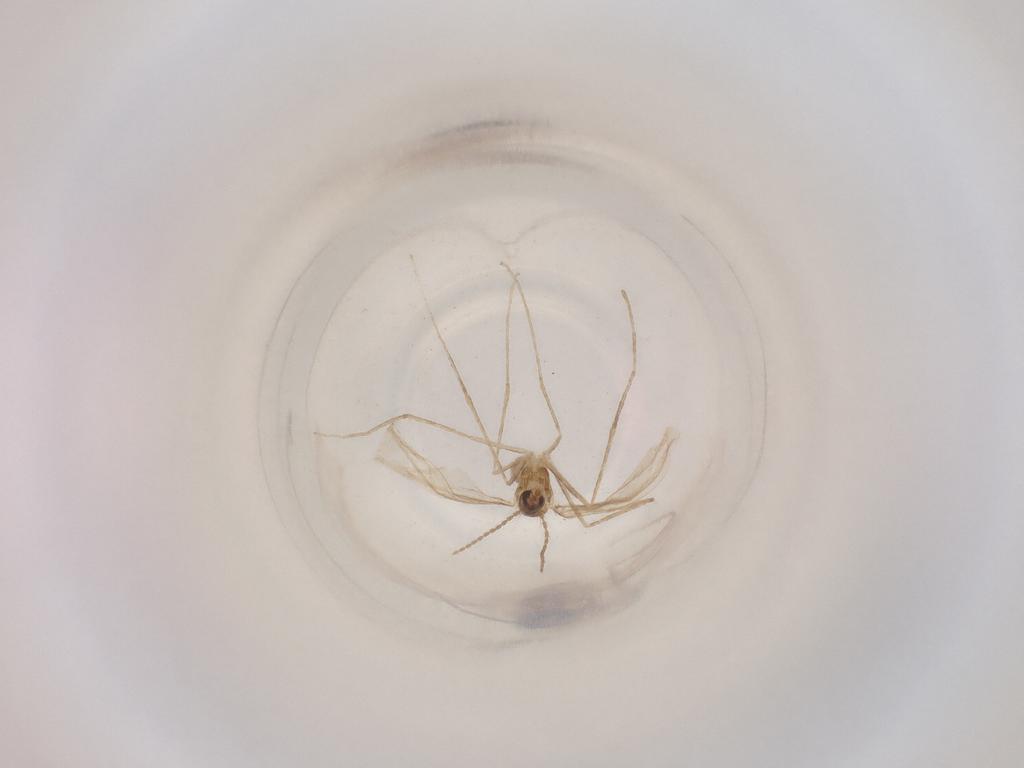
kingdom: Animalia
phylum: Arthropoda
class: Insecta
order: Diptera
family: Cecidomyiidae
